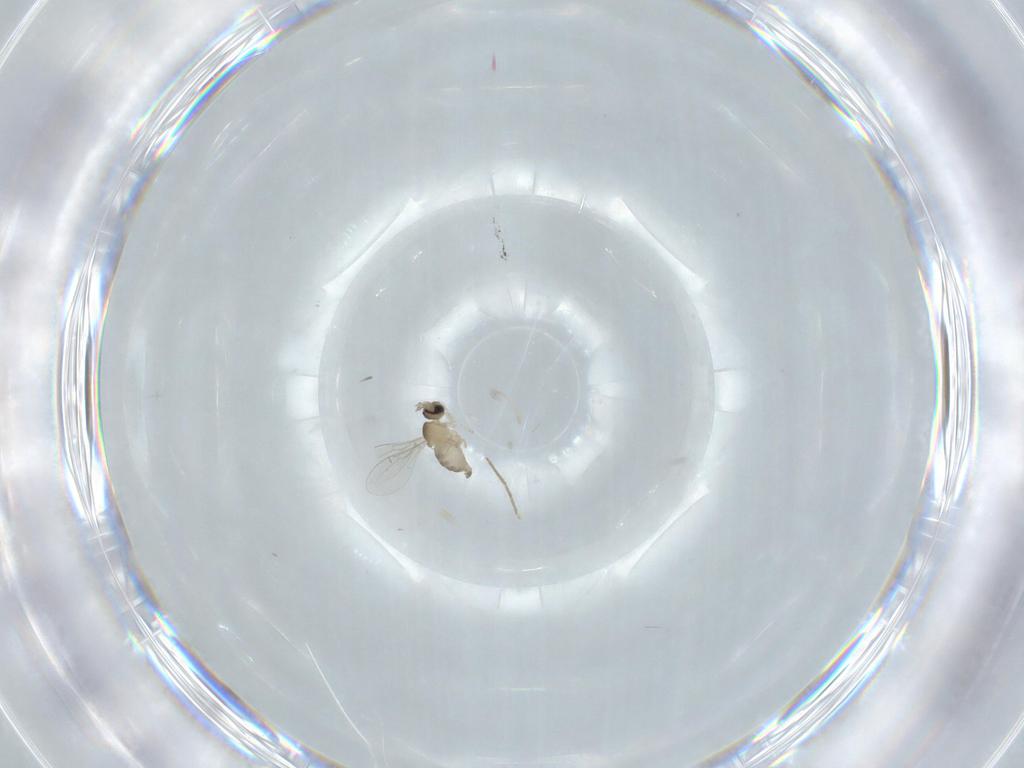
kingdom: Animalia
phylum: Arthropoda
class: Insecta
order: Diptera
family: Cecidomyiidae
